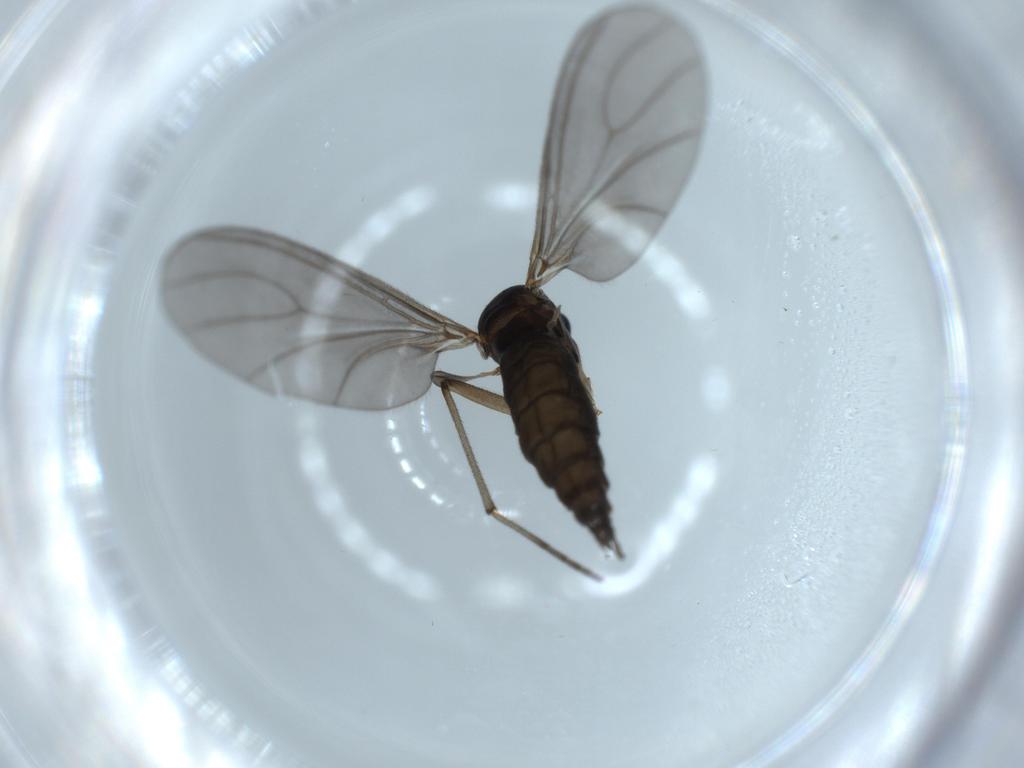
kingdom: Animalia
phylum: Arthropoda
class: Insecta
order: Diptera
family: Sciaridae
